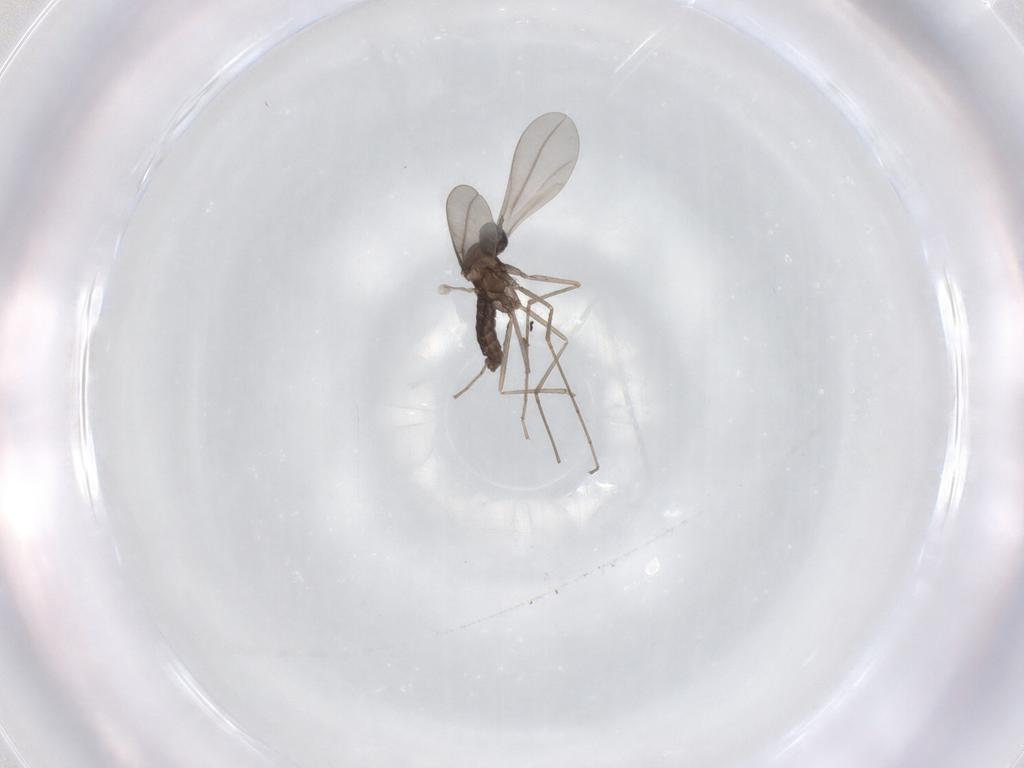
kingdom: Animalia
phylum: Arthropoda
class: Insecta
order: Diptera
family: Cecidomyiidae
